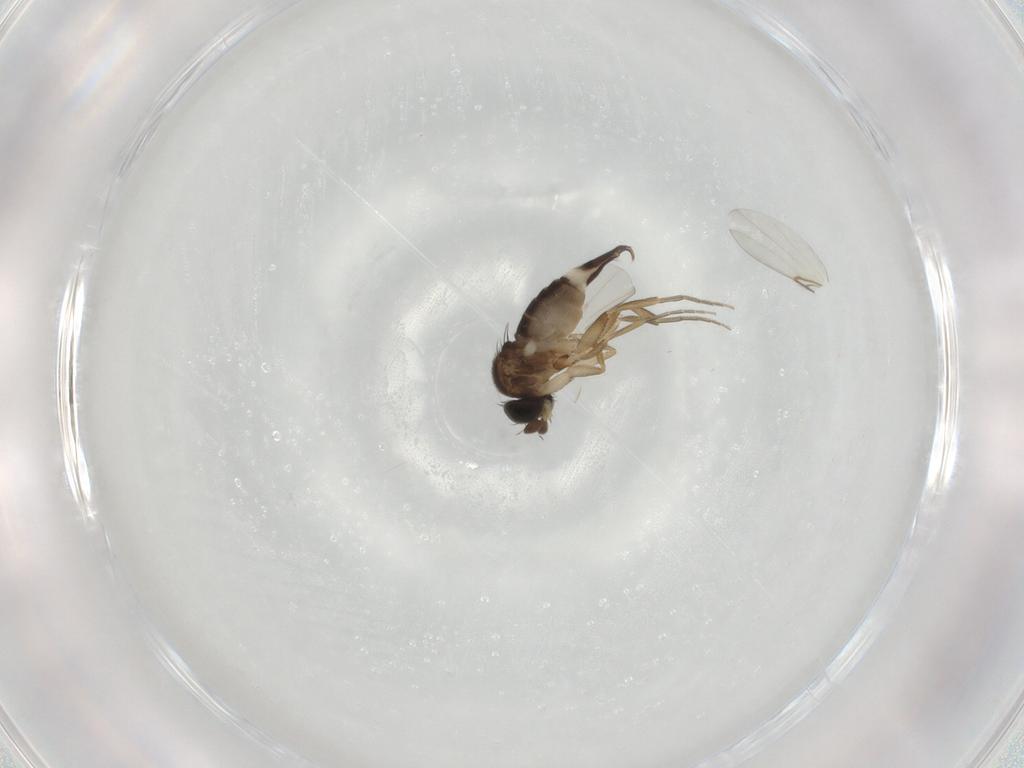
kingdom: Animalia
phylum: Arthropoda
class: Insecta
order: Diptera
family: Phoridae
